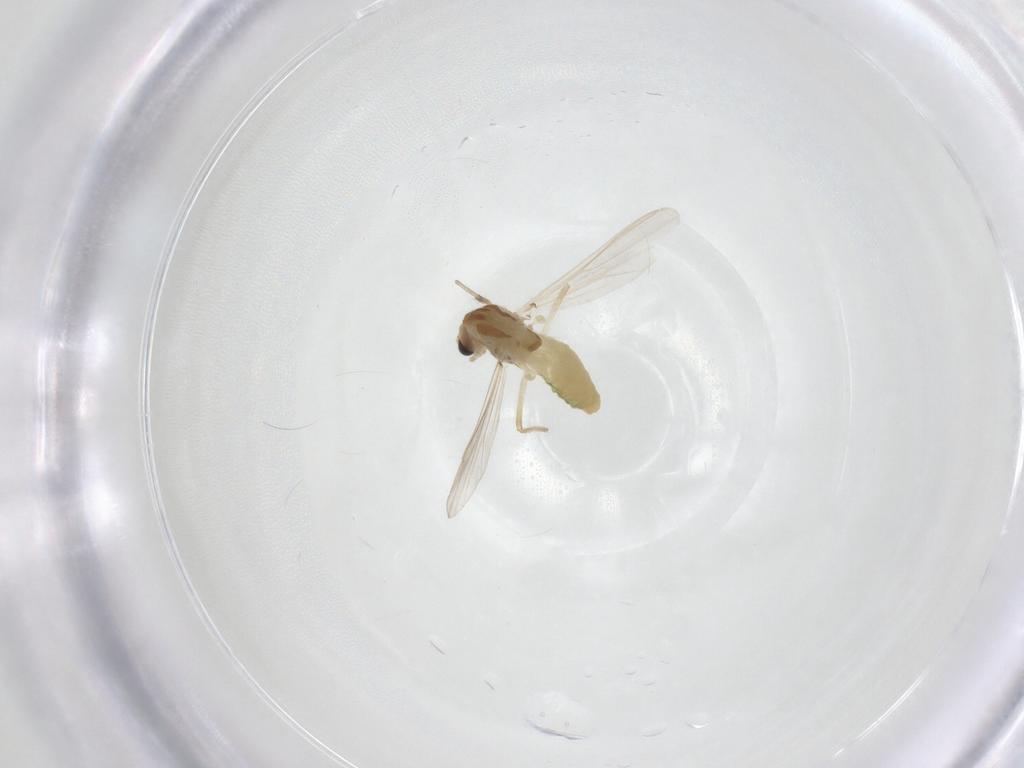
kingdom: Animalia
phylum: Arthropoda
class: Insecta
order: Diptera
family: Chironomidae
